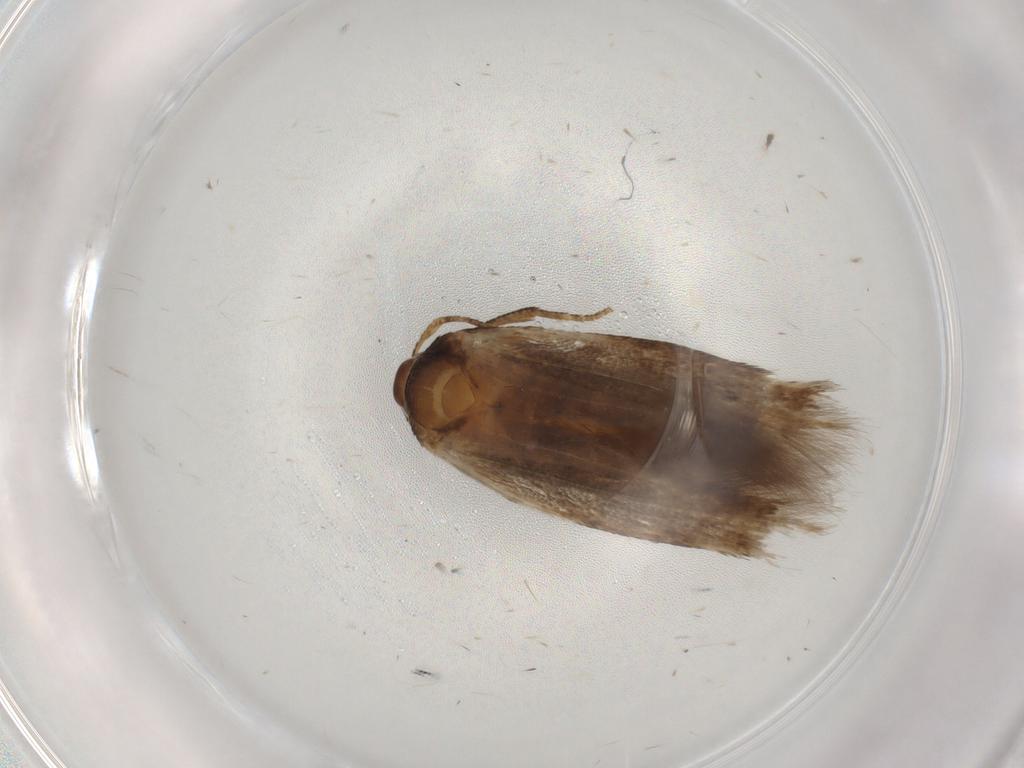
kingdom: Animalia
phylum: Arthropoda
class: Insecta
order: Lepidoptera
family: Cosmopterigidae
